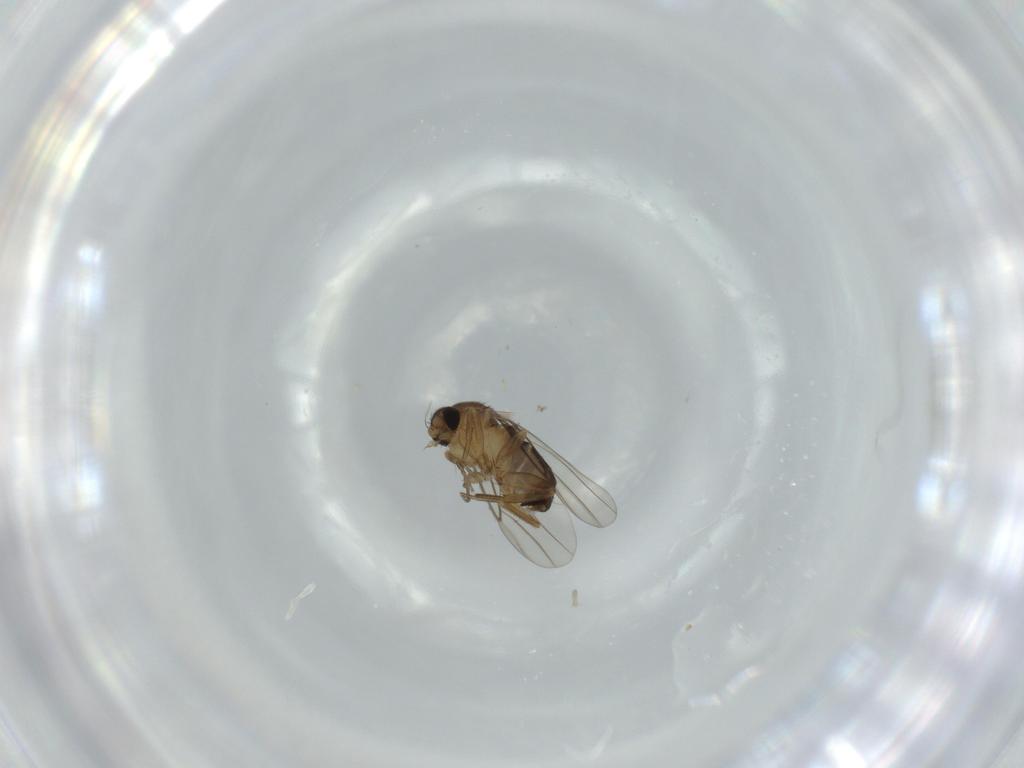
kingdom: Animalia
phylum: Arthropoda
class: Insecta
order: Diptera
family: Phoridae
